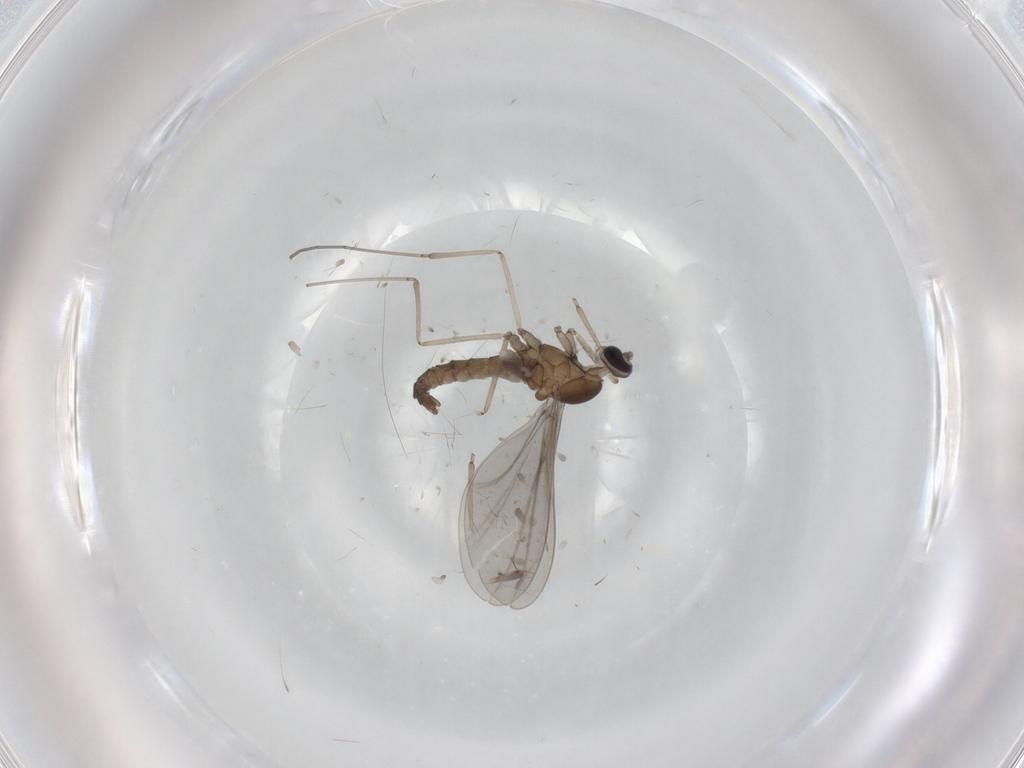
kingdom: Animalia
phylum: Arthropoda
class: Insecta
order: Diptera
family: Cecidomyiidae
